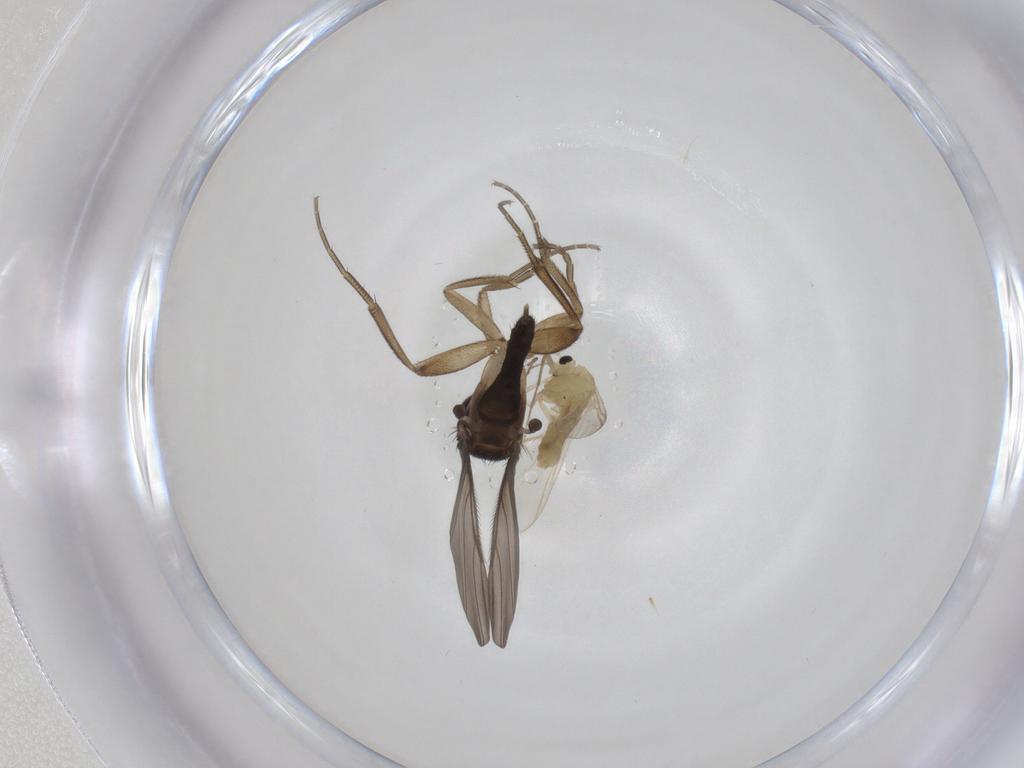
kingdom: Animalia
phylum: Arthropoda
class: Insecta
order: Diptera
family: Chironomidae
